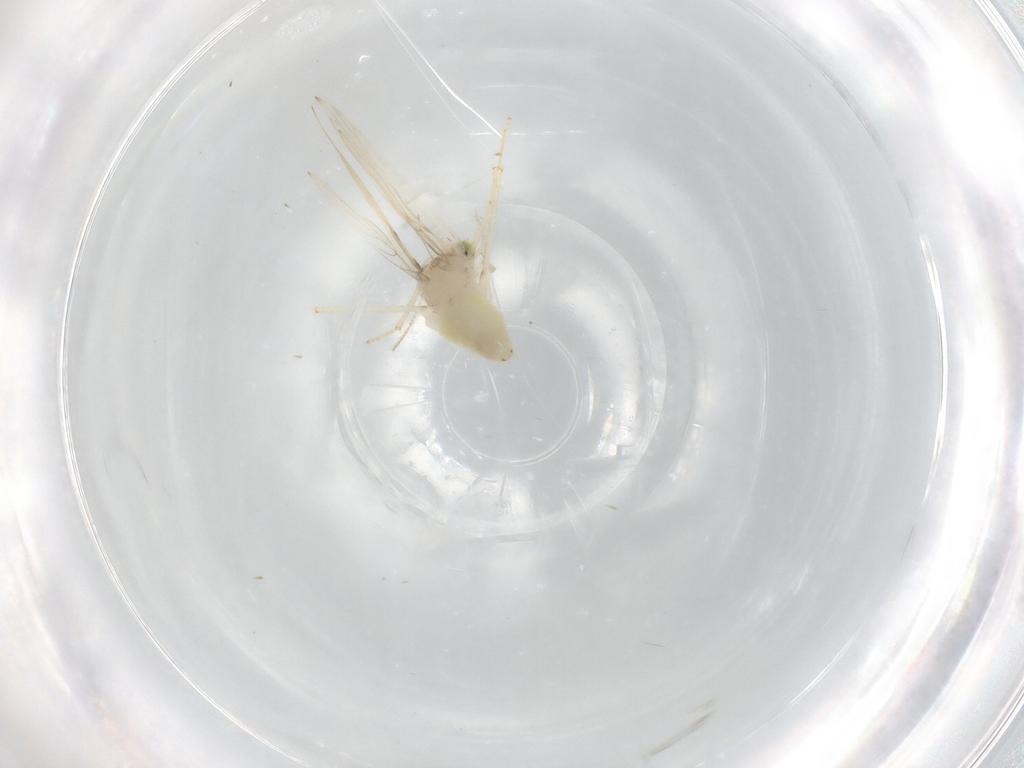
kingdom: Animalia
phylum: Arthropoda
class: Insecta
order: Psocodea
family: Lepidopsocidae
